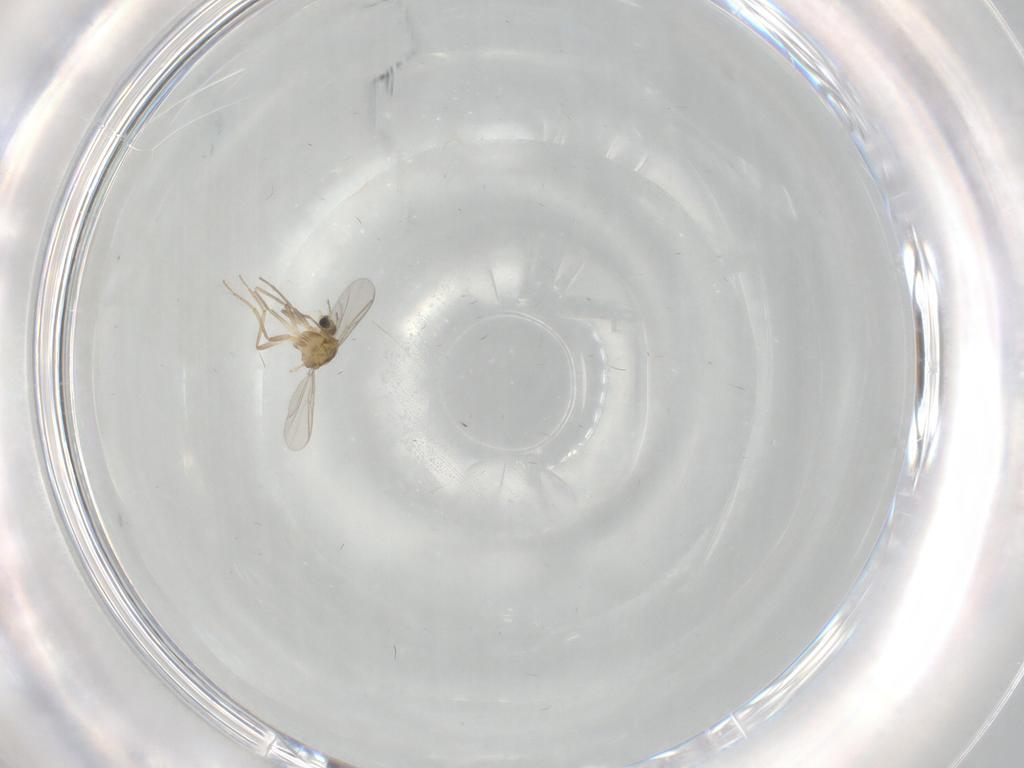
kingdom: Animalia
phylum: Arthropoda
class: Insecta
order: Diptera
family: Chironomidae
